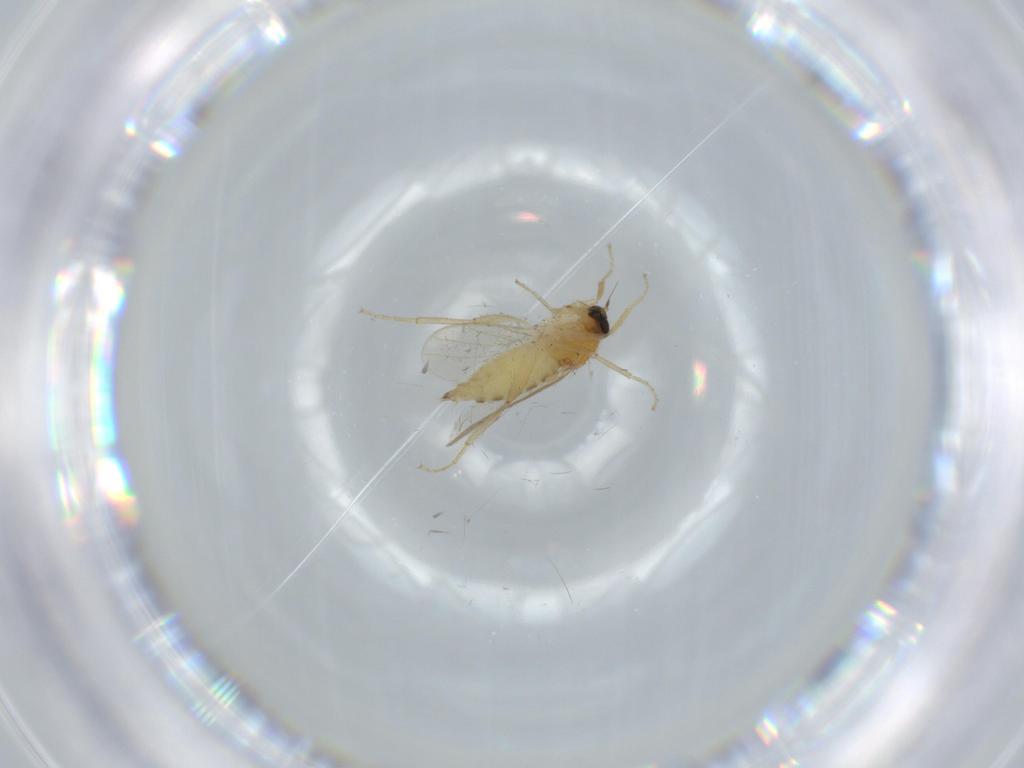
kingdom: Animalia
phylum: Arthropoda
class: Insecta
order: Diptera
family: Hybotidae
